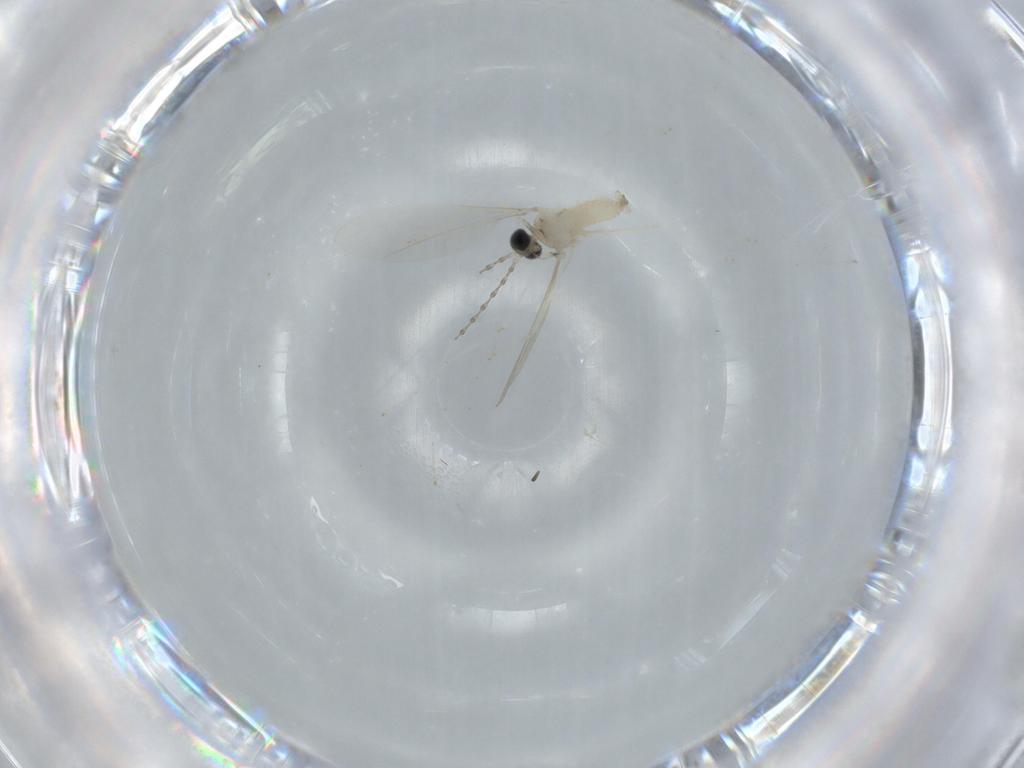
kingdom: Animalia
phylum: Arthropoda
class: Insecta
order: Diptera
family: Cecidomyiidae
